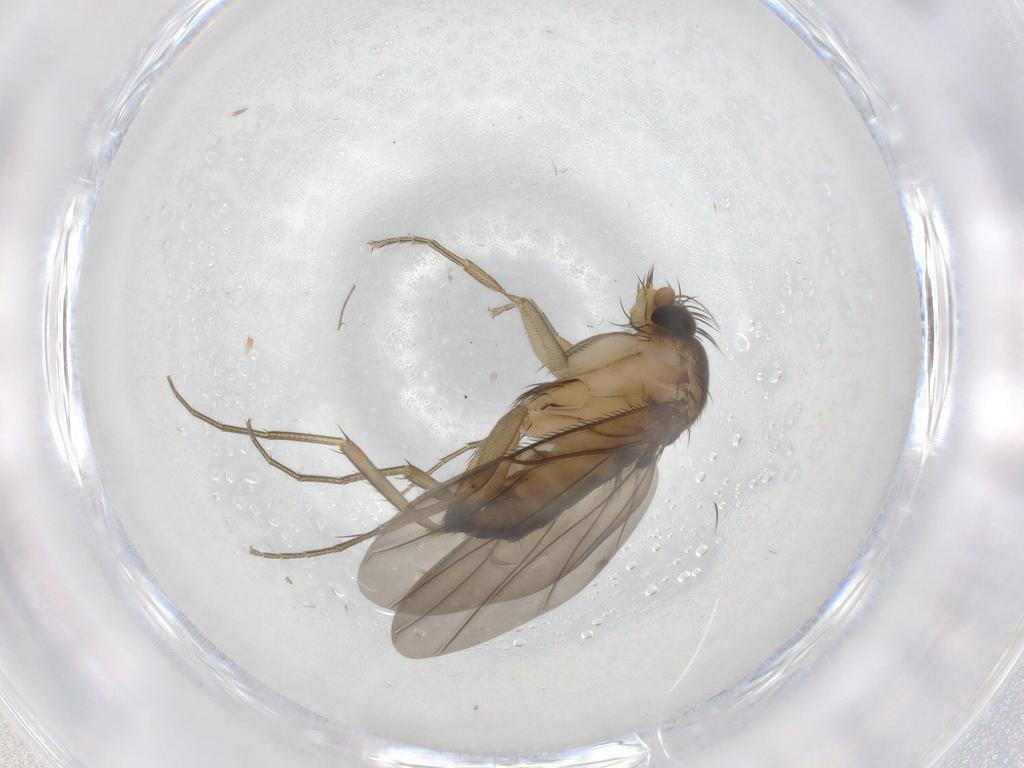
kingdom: Animalia
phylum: Arthropoda
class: Insecta
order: Diptera
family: Phoridae
